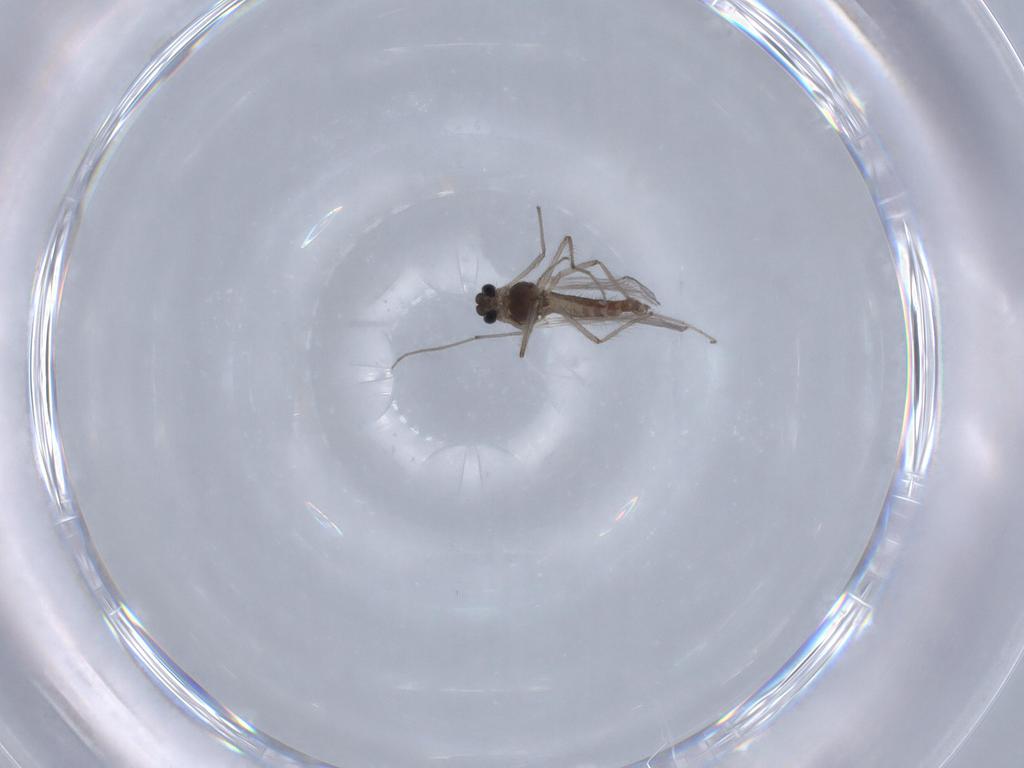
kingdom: Animalia
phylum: Arthropoda
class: Insecta
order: Diptera
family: Chironomidae
